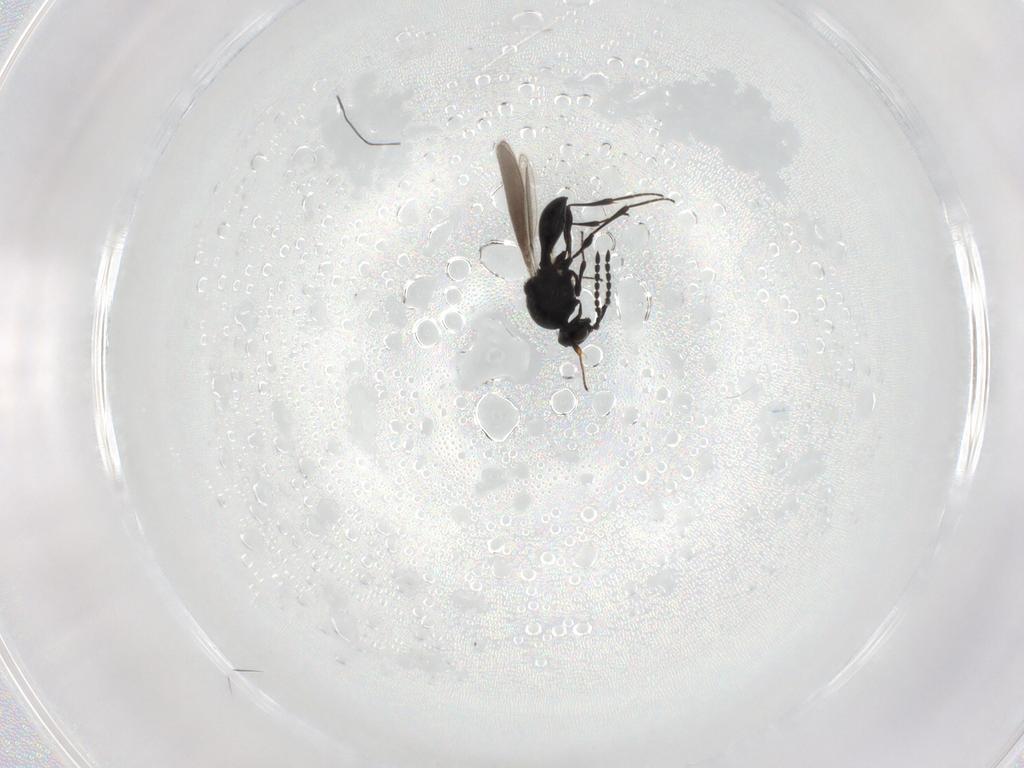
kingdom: Animalia
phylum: Arthropoda
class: Insecta
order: Hymenoptera
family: Platygastridae
